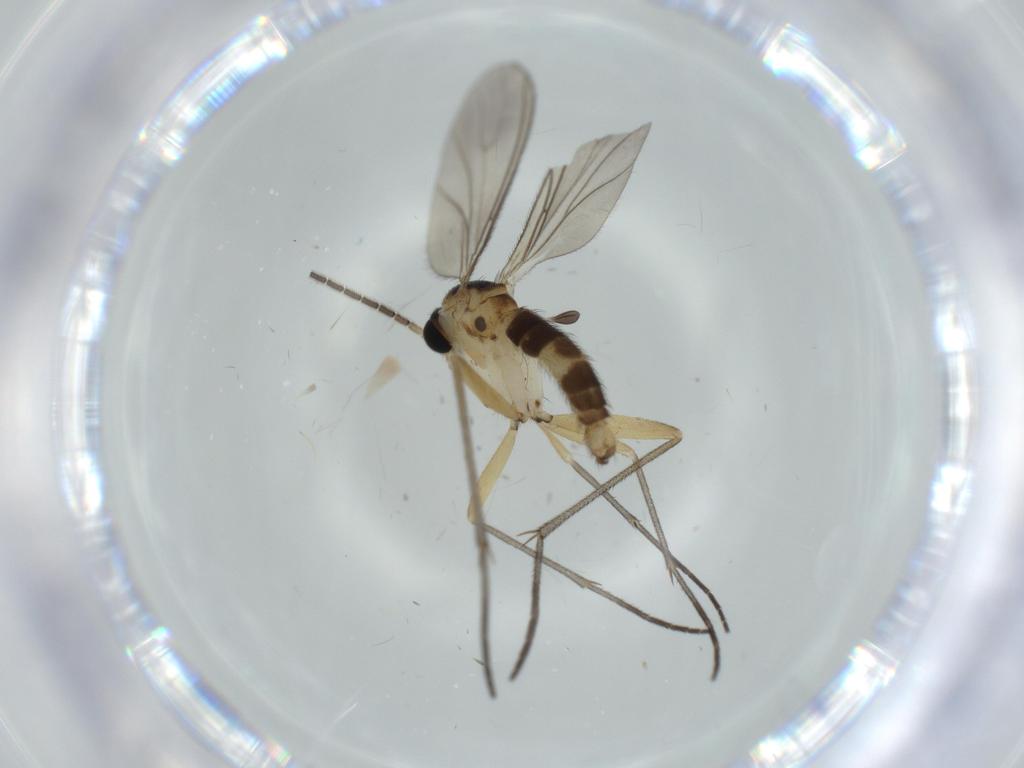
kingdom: Animalia
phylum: Arthropoda
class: Insecta
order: Diptera
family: Sciaridae
